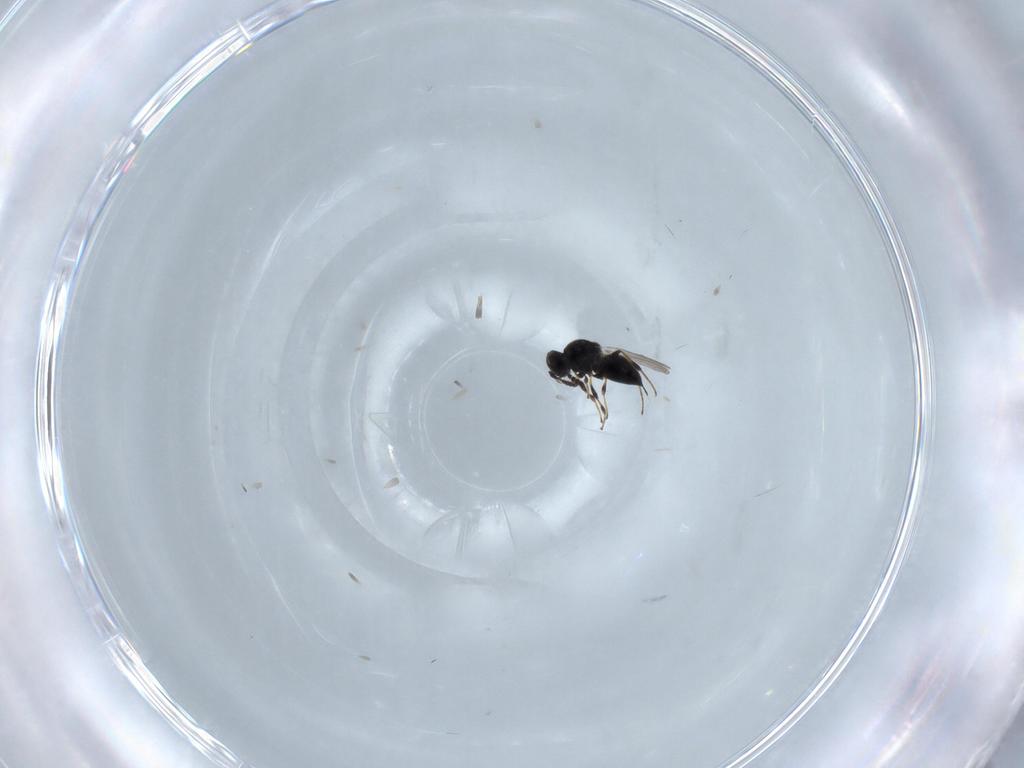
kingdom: Animalia
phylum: Arthropoda
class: Insecta
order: Hymenoptera
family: Platygastridae
